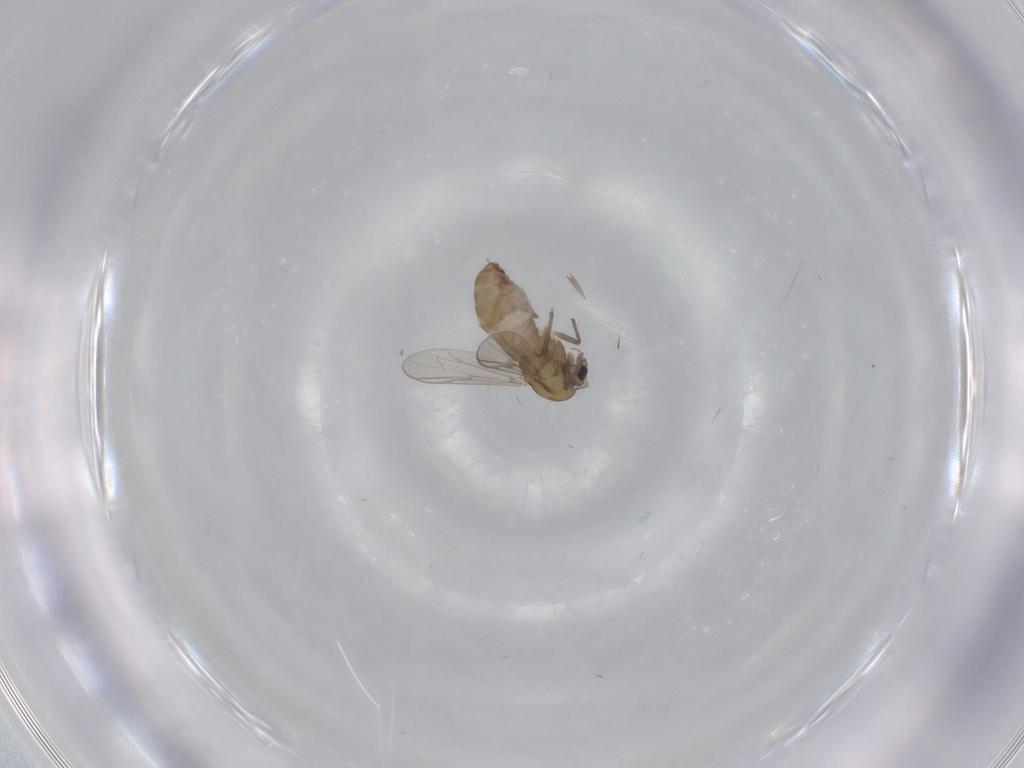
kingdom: Animalia
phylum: Arthropoda
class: Insecta
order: Diptera
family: Chironomidae
